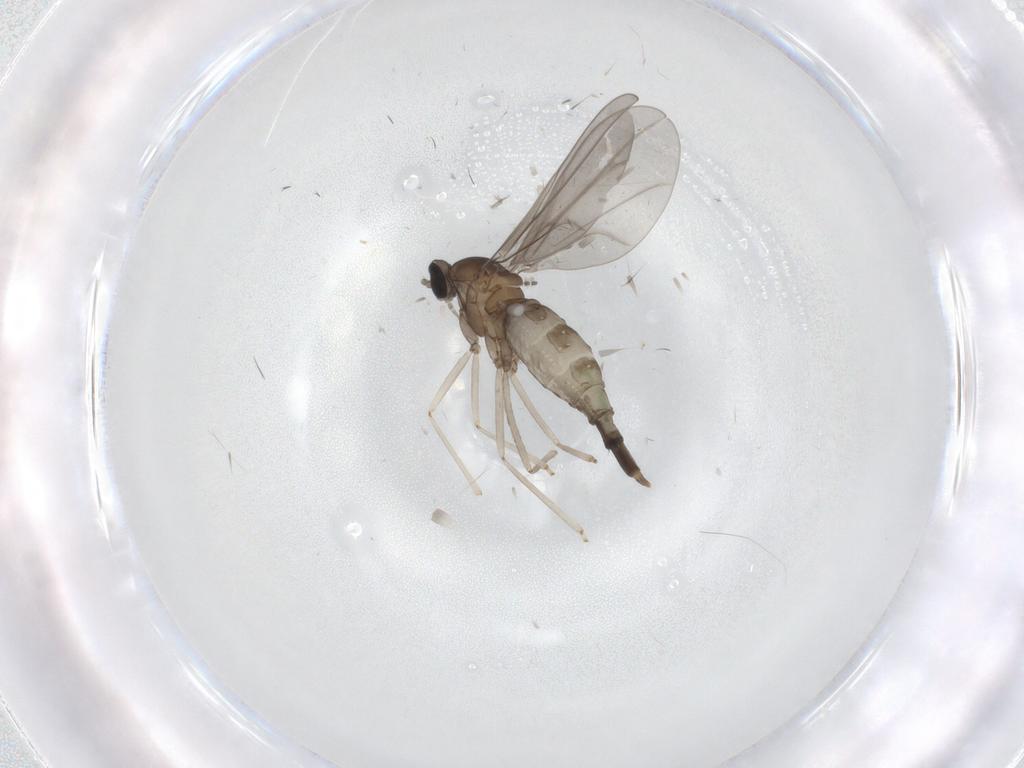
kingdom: Animalia
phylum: Arthropoda
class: Insecta
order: Diptera
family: Sciaridae
